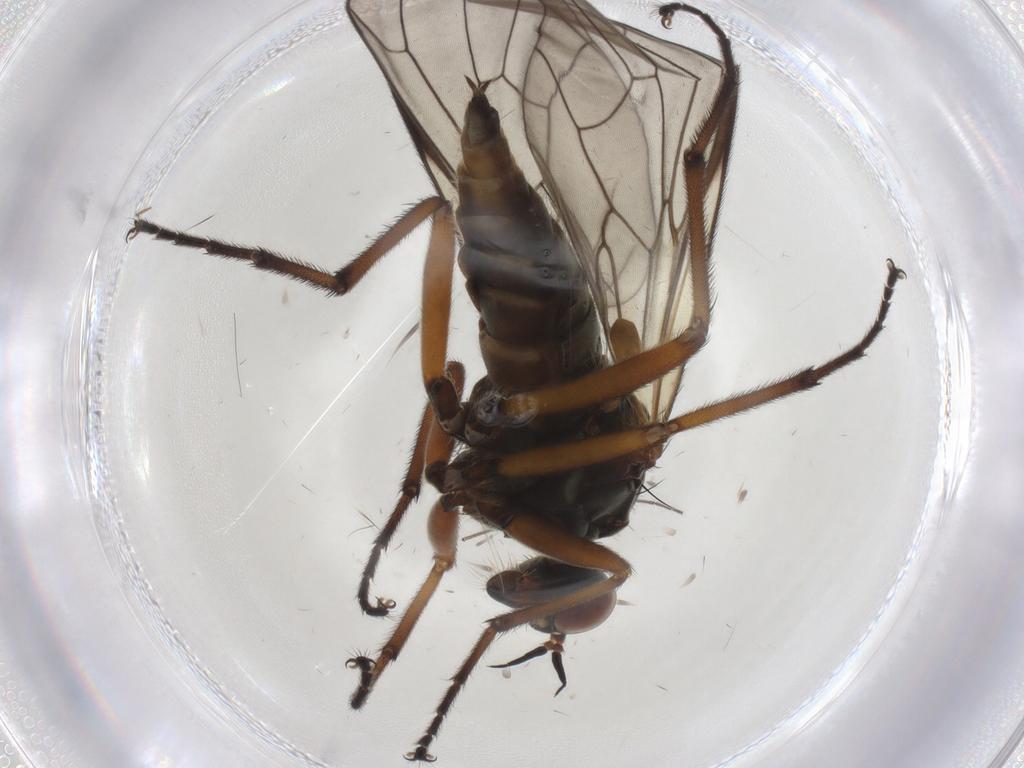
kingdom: Animalia
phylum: Arthropoda
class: Insecta
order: Diptera
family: Empididae
